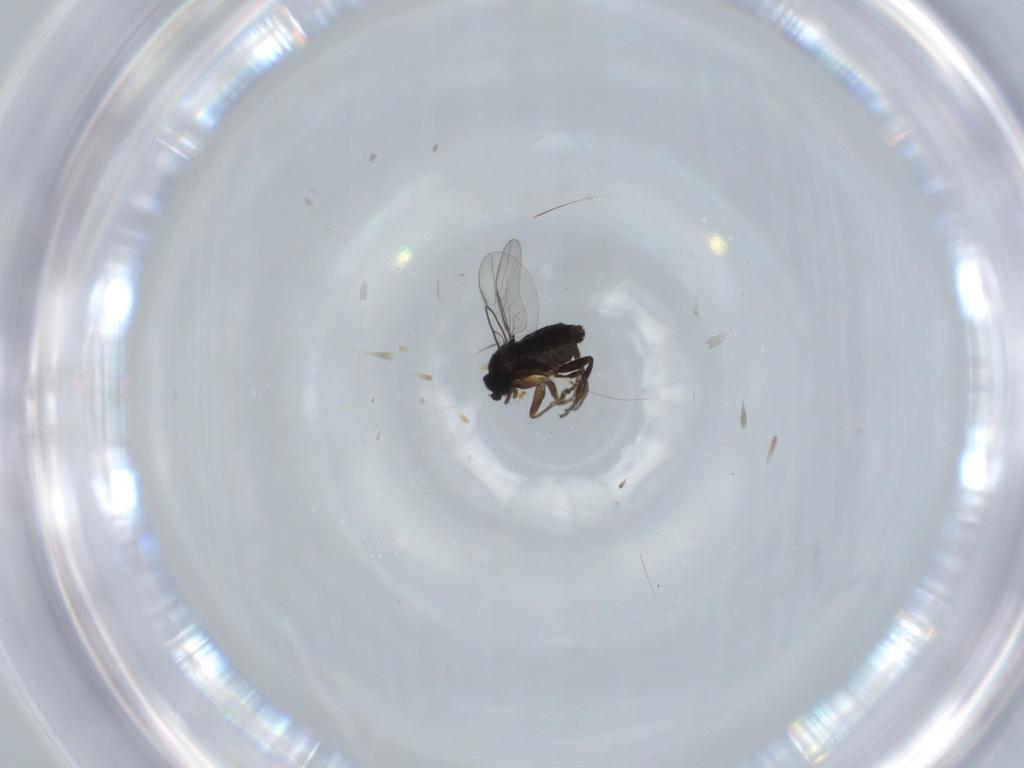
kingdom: Animalia
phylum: Arthropoda
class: Insecta
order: Diptera
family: Phoridae
